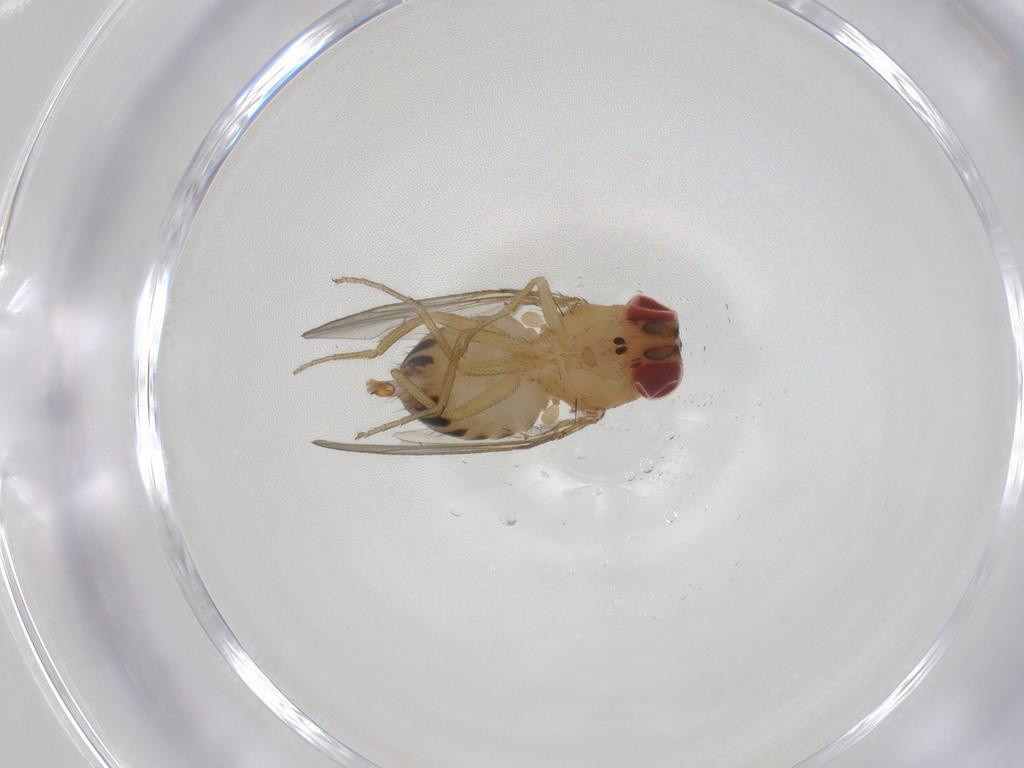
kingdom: Animalia
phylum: Arthropoda
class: Insecta
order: Diptera
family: Drosophilidae
